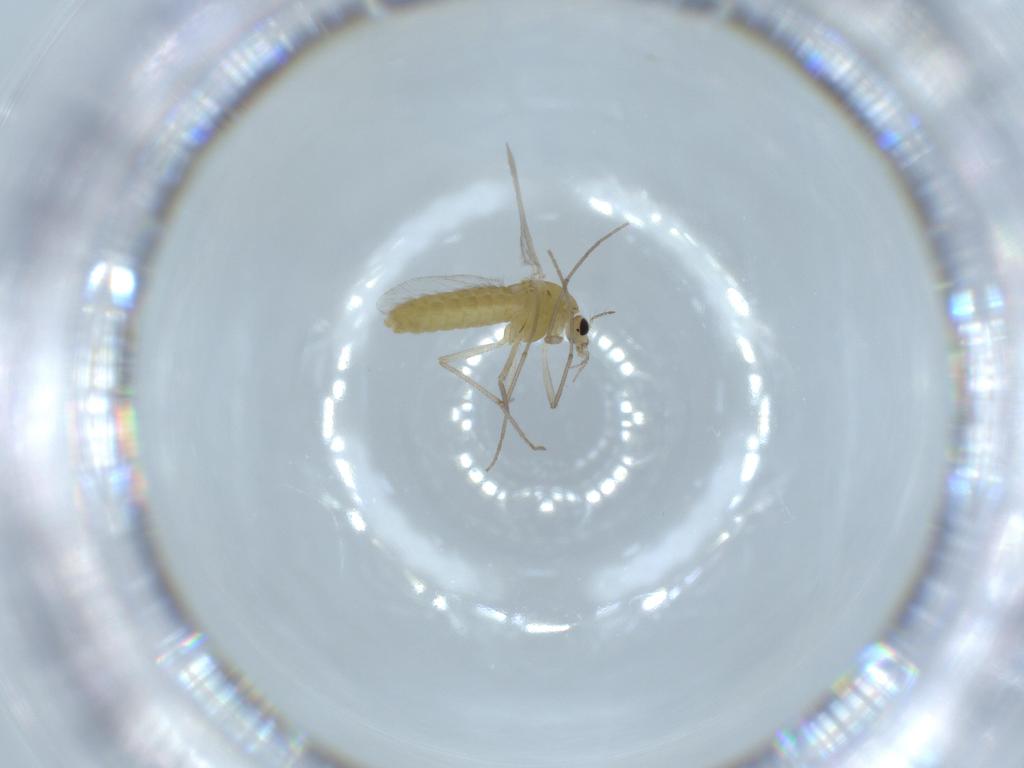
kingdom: Animalia
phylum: Arthropoda
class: Insecta
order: Diptera
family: Chironomidae
